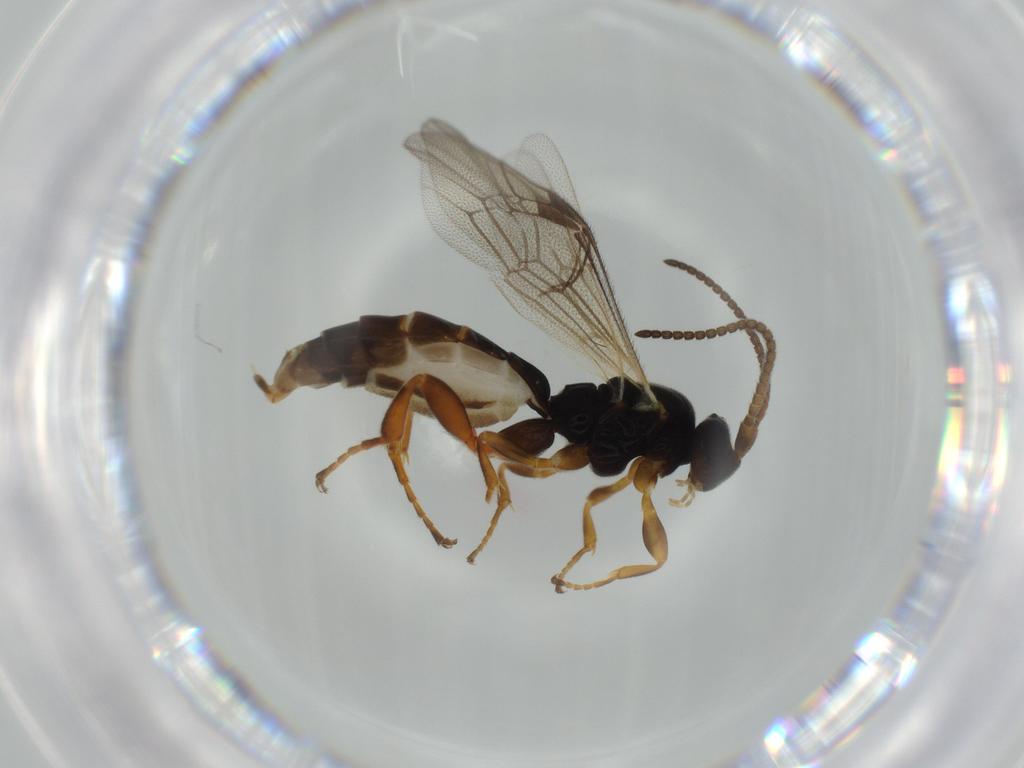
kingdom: Animalia
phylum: Arthropoda
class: Insecta
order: Hymenoptera
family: Ichneumonidae
